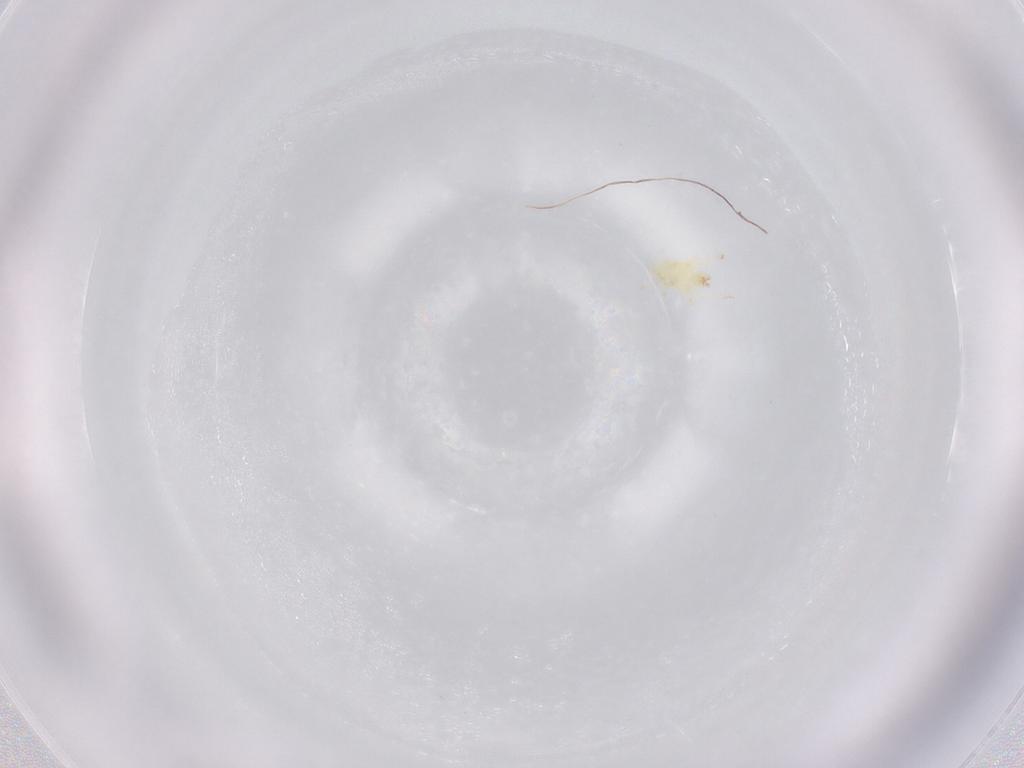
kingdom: Animalia
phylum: Arthropoda
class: Arachnida
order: Trombidiformes
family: Stigmaeidae
